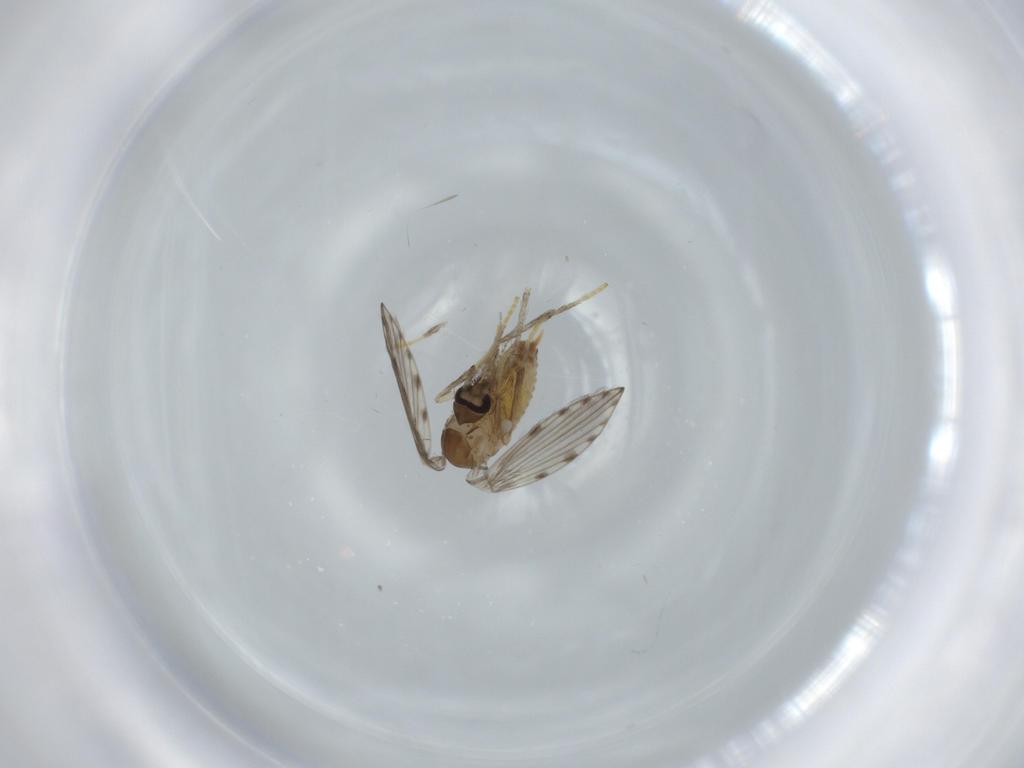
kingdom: Animalia
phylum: Arthropoda
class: Insecta
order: Diptera
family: Psychodidae
